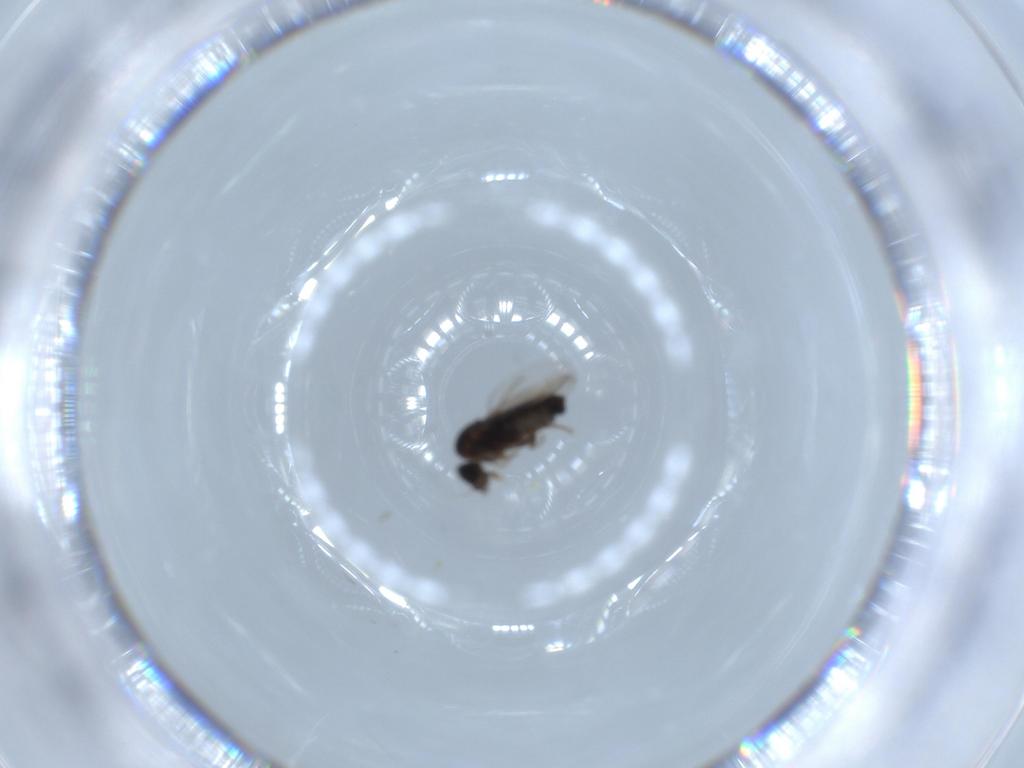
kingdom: Animalia
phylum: Arthropoda
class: Insecta
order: Diptera
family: Phoridae
